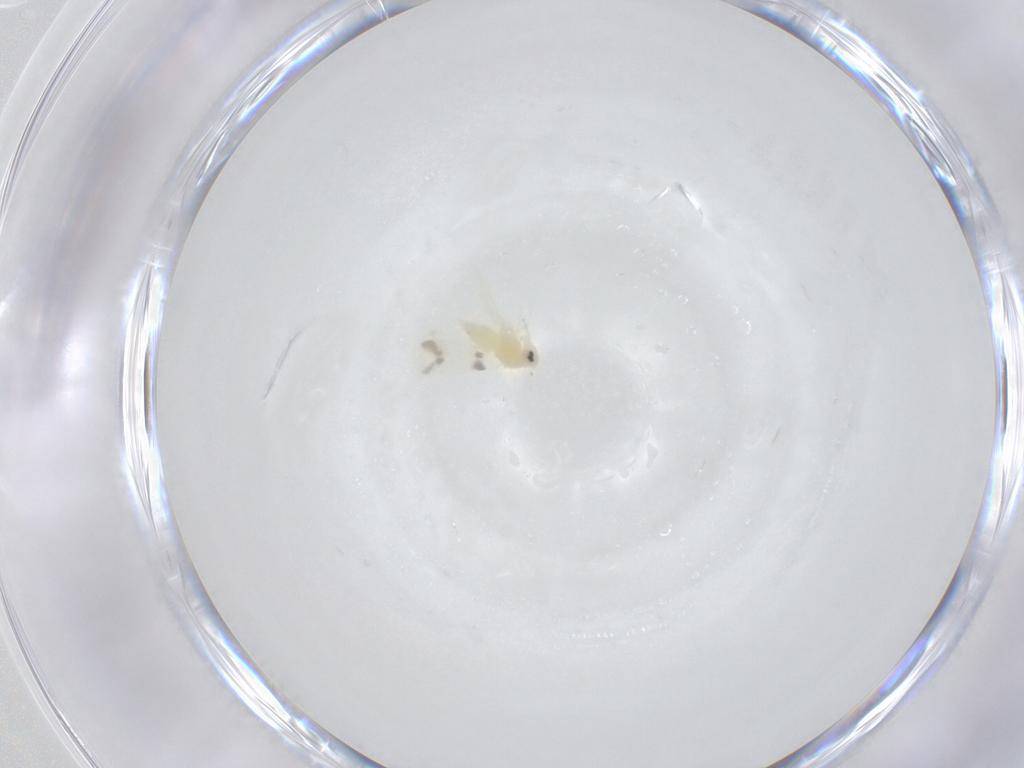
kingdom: Animalia
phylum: Arthropoda
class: Insecta
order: Hemiptera
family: Aleyrodidae
